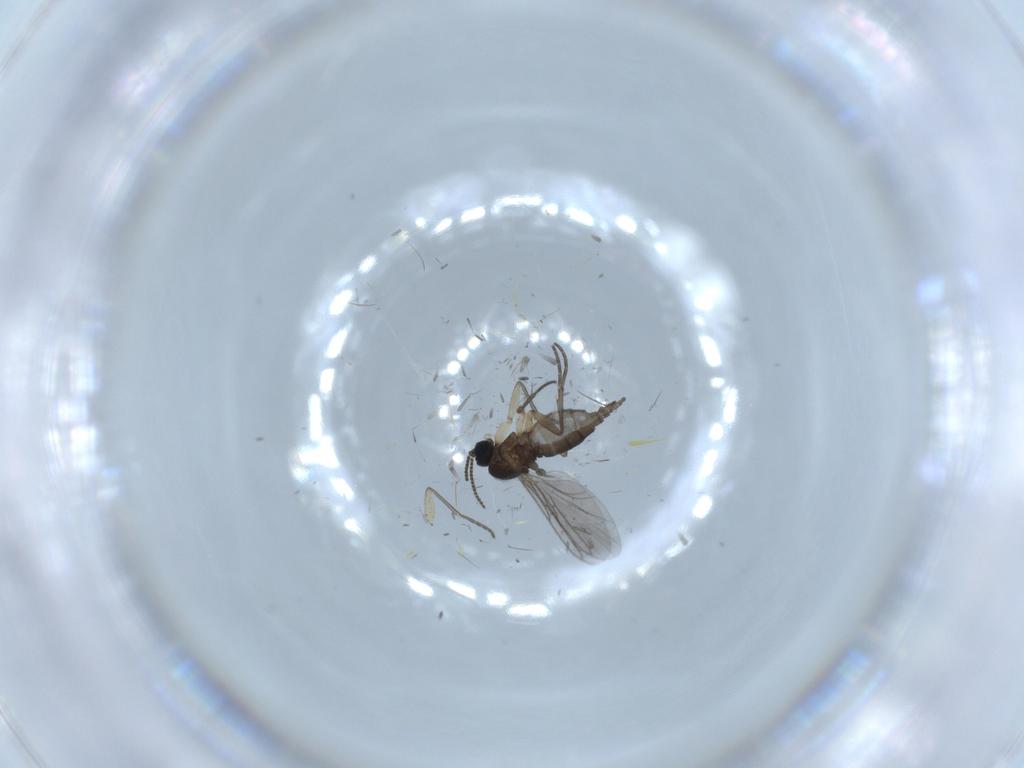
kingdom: Animalia
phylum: Arthropoda
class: Insecta
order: Diptera
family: Sciaridae
